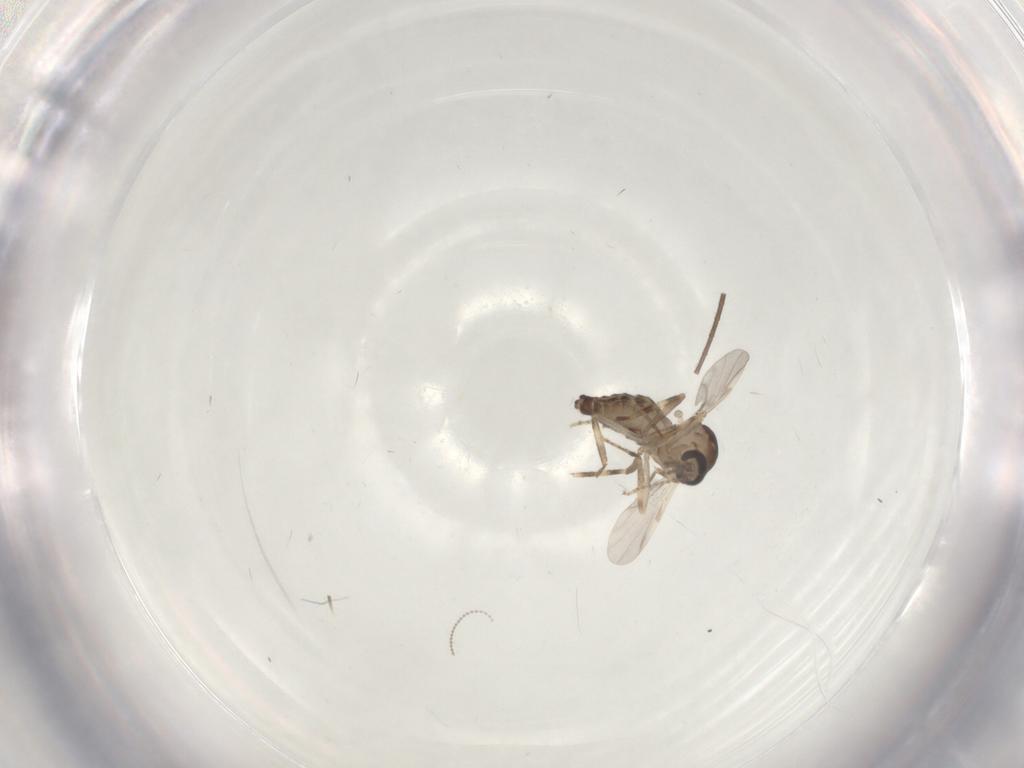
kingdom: Animalia
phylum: Arthropoda
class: Insecta
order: Diptera
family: Ceratopogonidae
